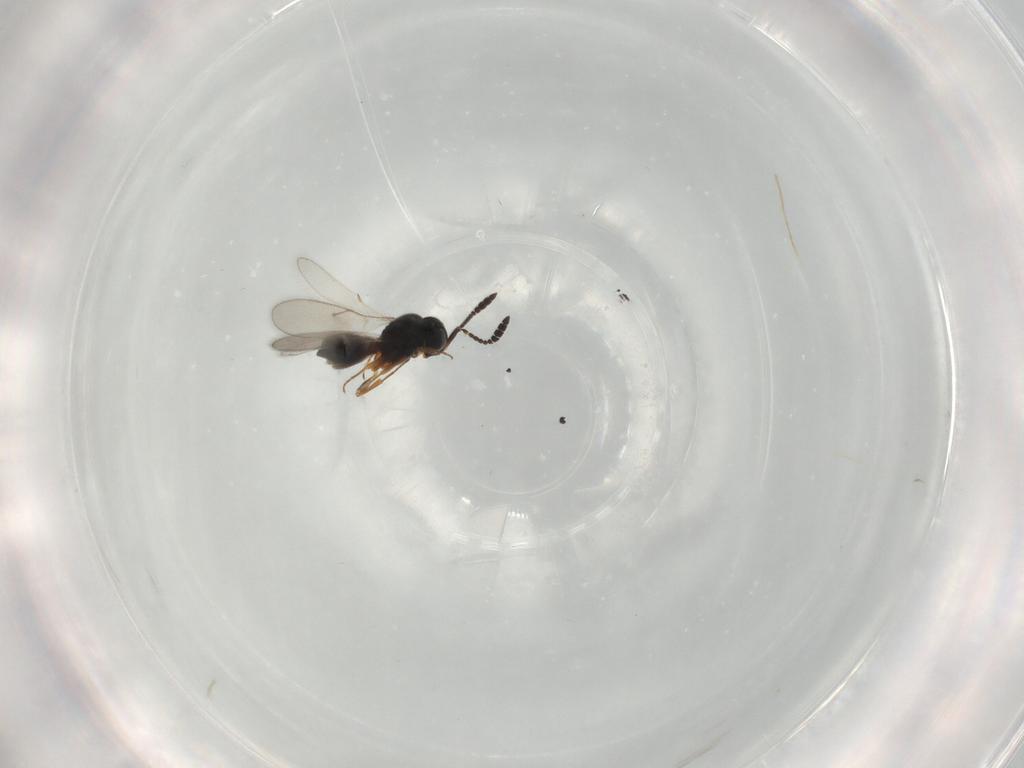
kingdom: Animalia
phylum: Arthropoda
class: Insecta
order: Hymenoptera
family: Scelionidae
